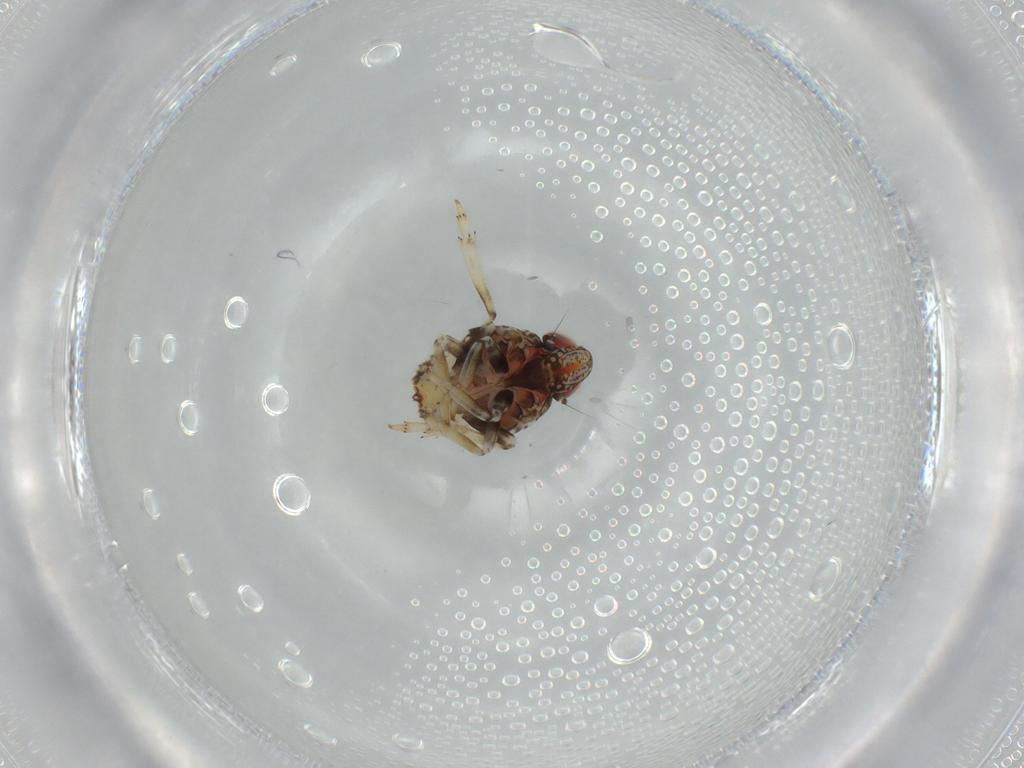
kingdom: Animalia
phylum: Arthropoda
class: Insecta
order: Hemiptera
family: Issidae
